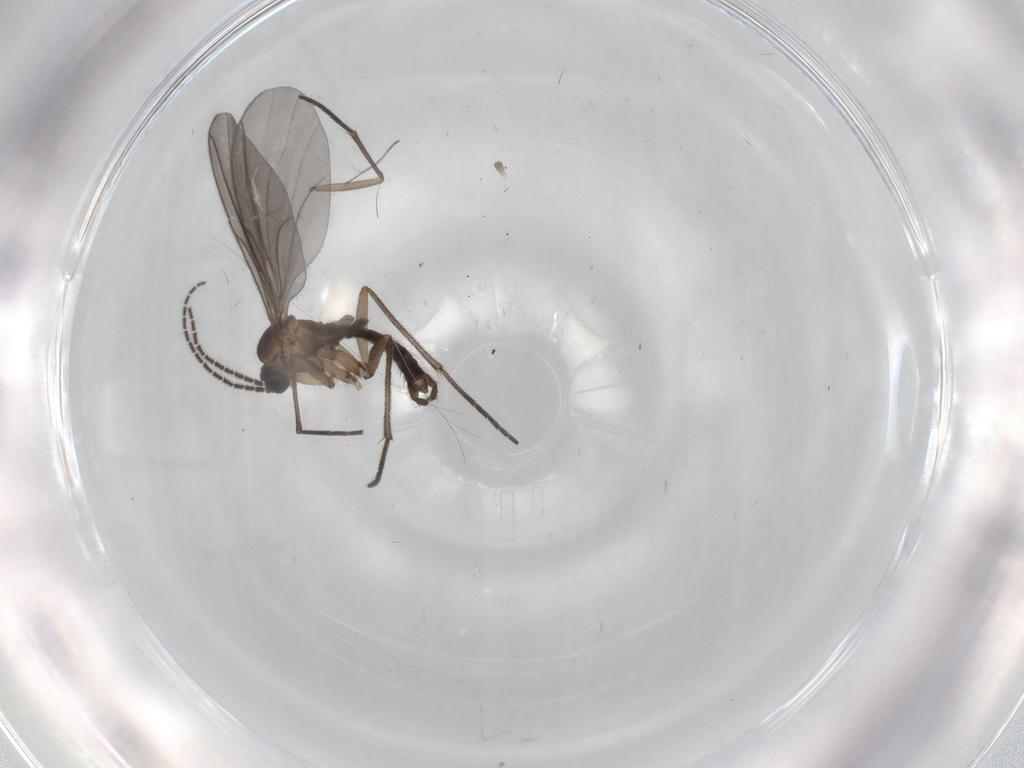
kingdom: Animalia
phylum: Arthropoda
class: Insecta
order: Diptera
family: Sciaridae
